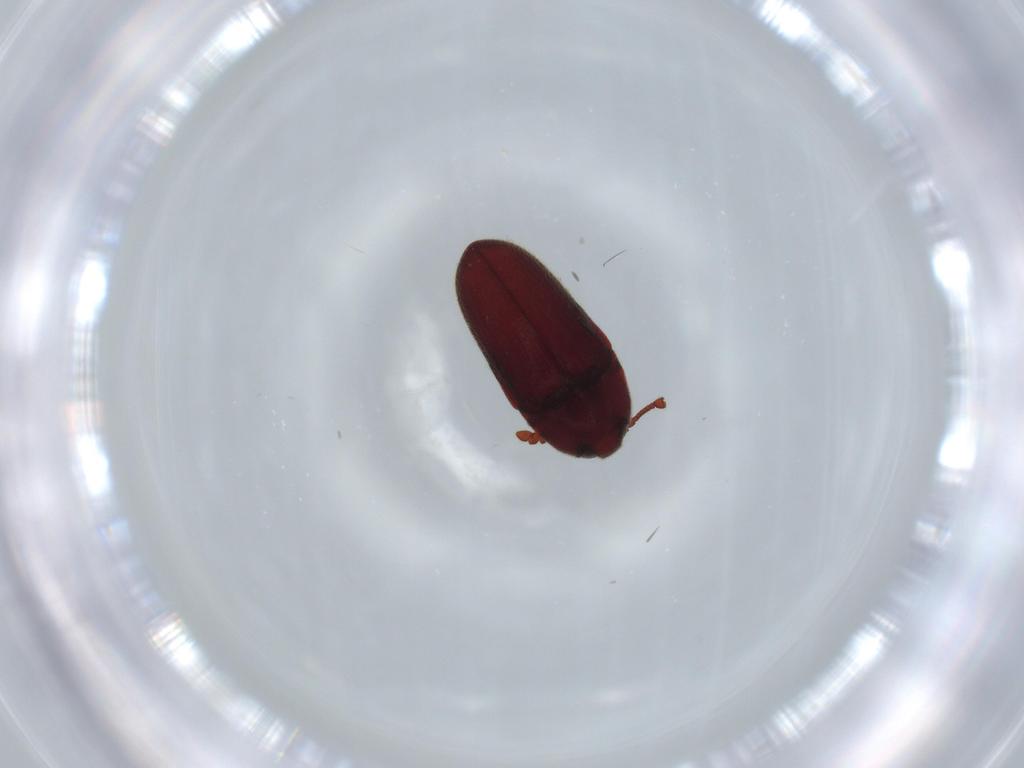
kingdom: Animalia
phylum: Arthropoda
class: Insecta
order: Coleoptera
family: Throscidae
